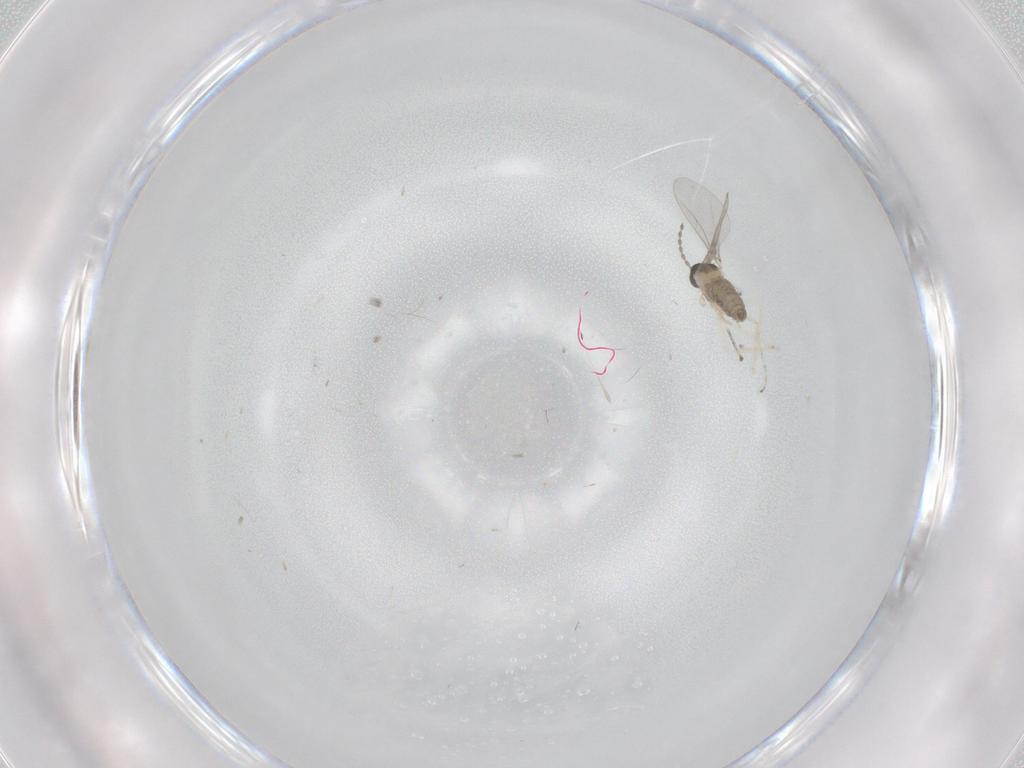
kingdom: Animalia
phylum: Arthropoda
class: Insecta
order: Diptera
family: Cecidomyiidae
